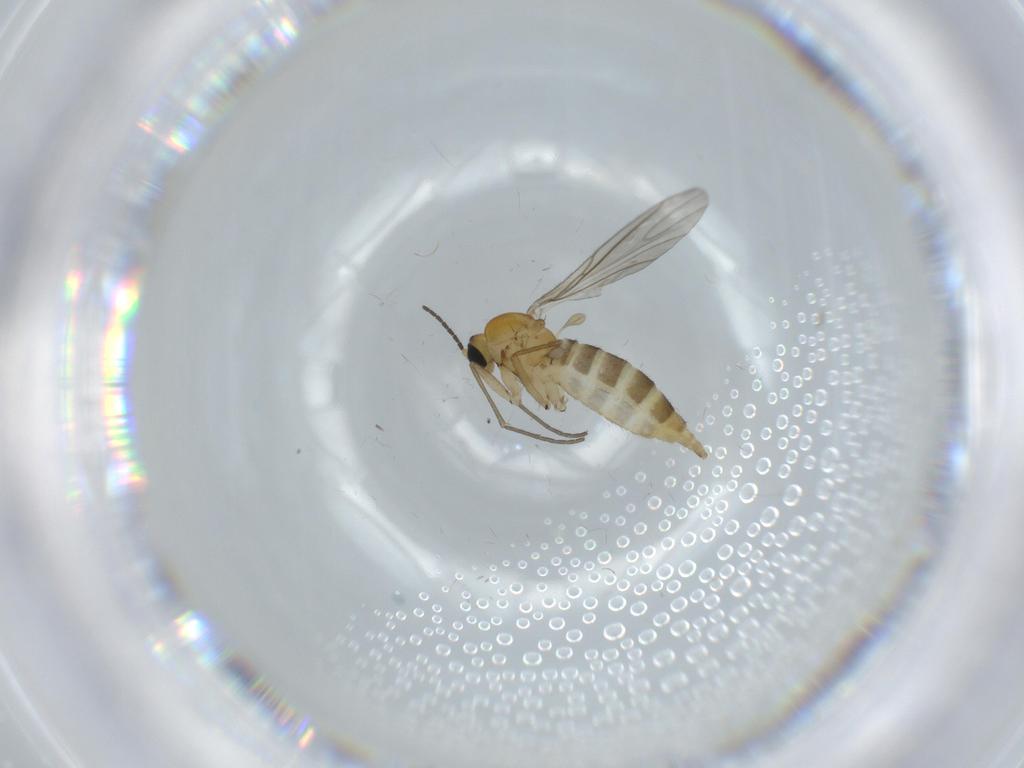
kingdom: Animalia
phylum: Arthropoda
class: Insecta
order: Diptera
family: Sciaridae
